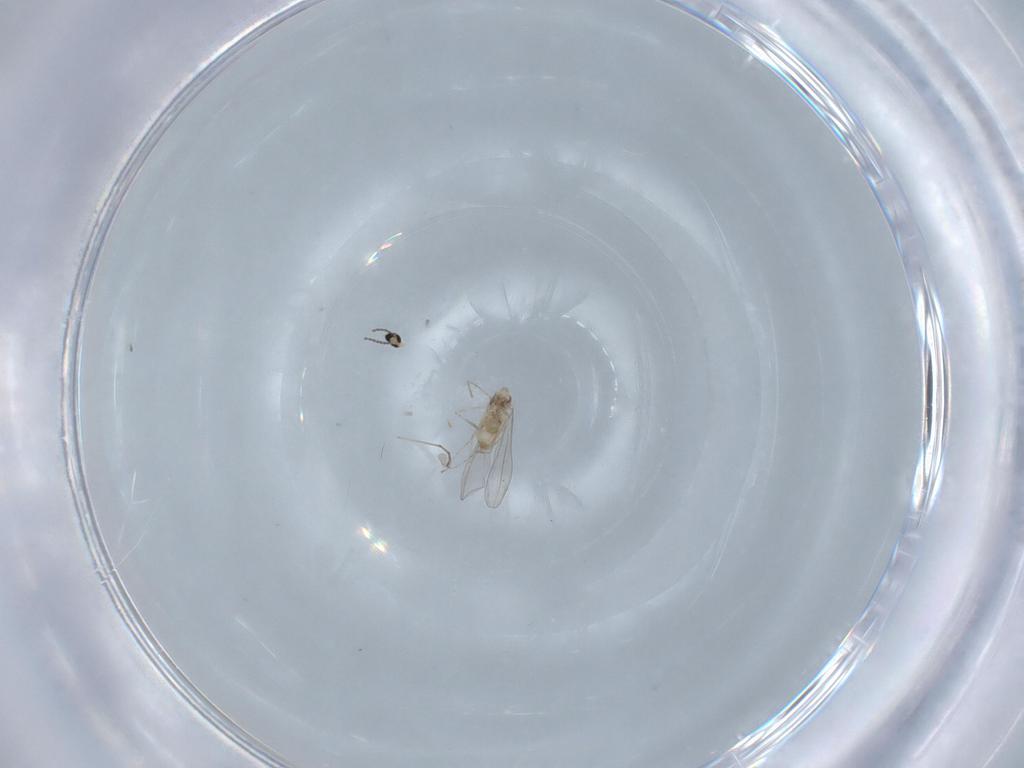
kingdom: Animalia
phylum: Arthropoda
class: Insecta
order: Diptera
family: Cecidomyiidae
